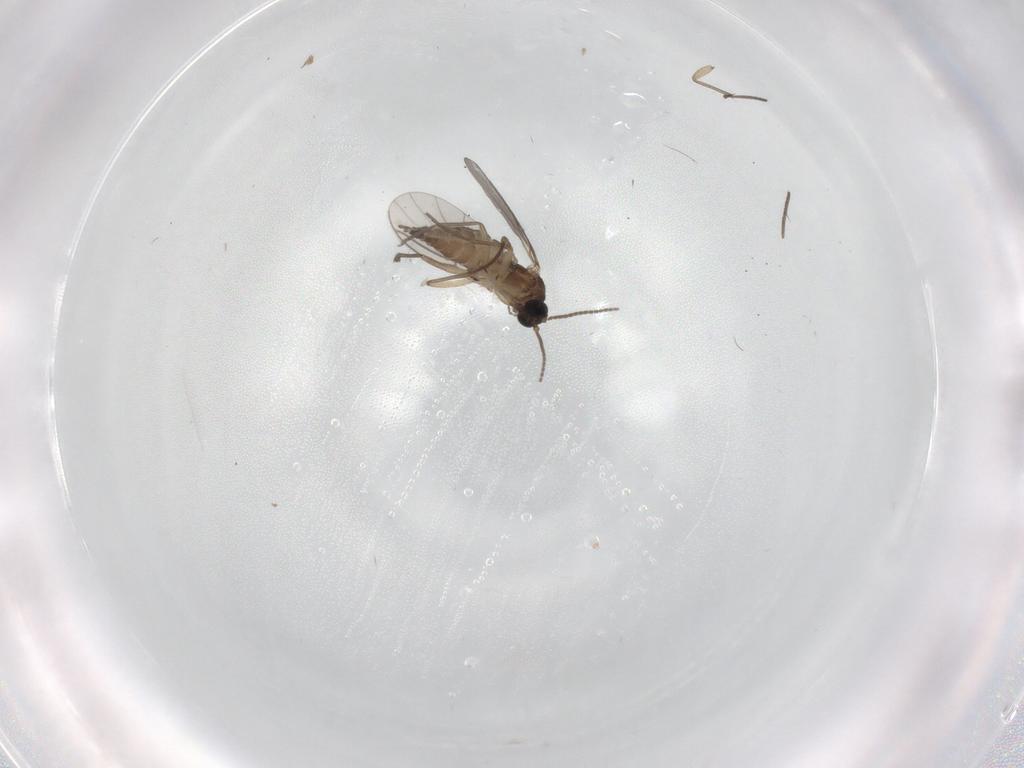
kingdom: Animalia
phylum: Arthropoda
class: Insecta
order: Diptera
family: Sciaridae
